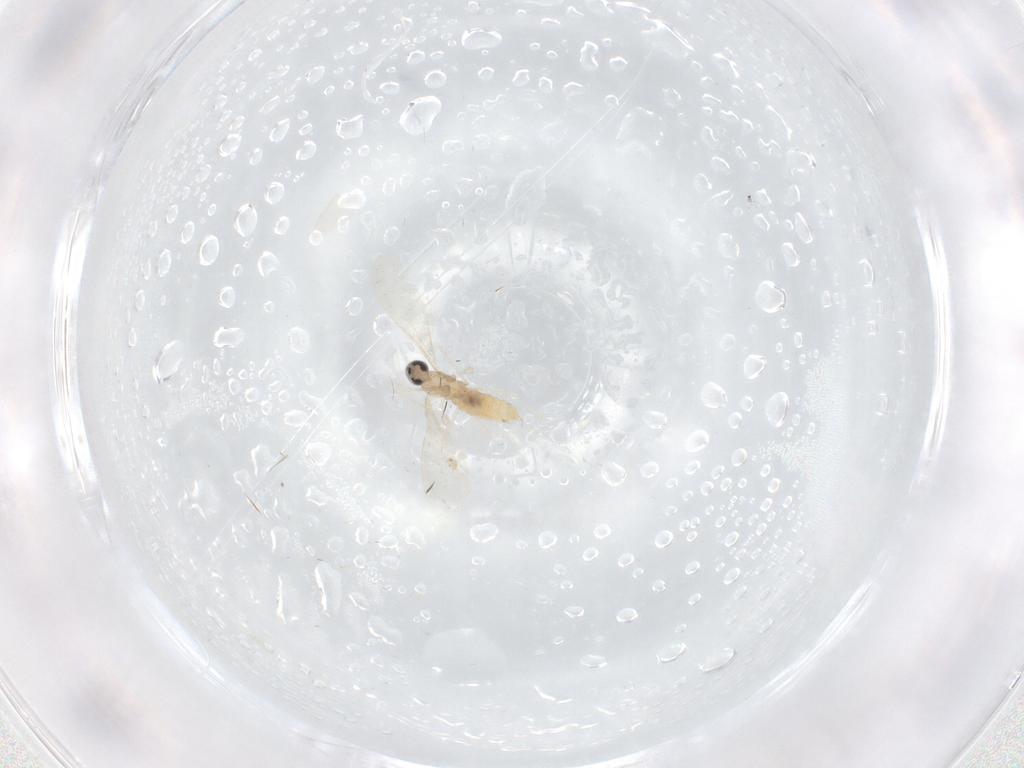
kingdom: Animalia
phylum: Arthropoda
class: Insecta
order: Diptera
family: Cecidomyiidae
